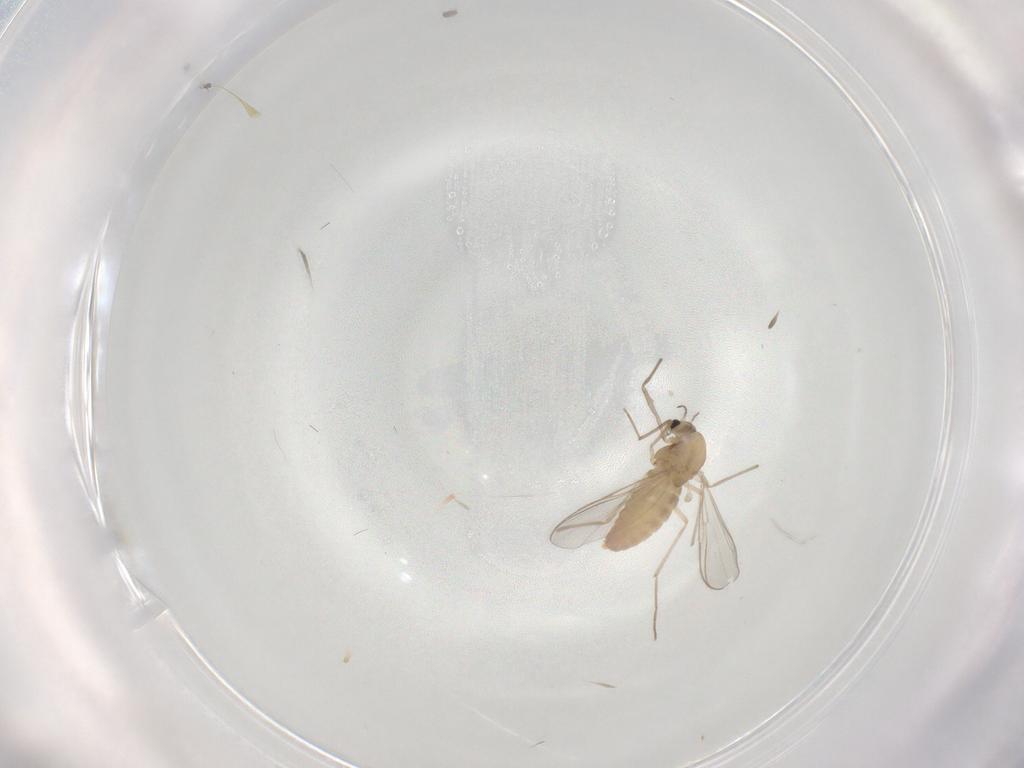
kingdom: Animalia
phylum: Arthropoda
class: Insecta
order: Diptera
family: Chironomidae
